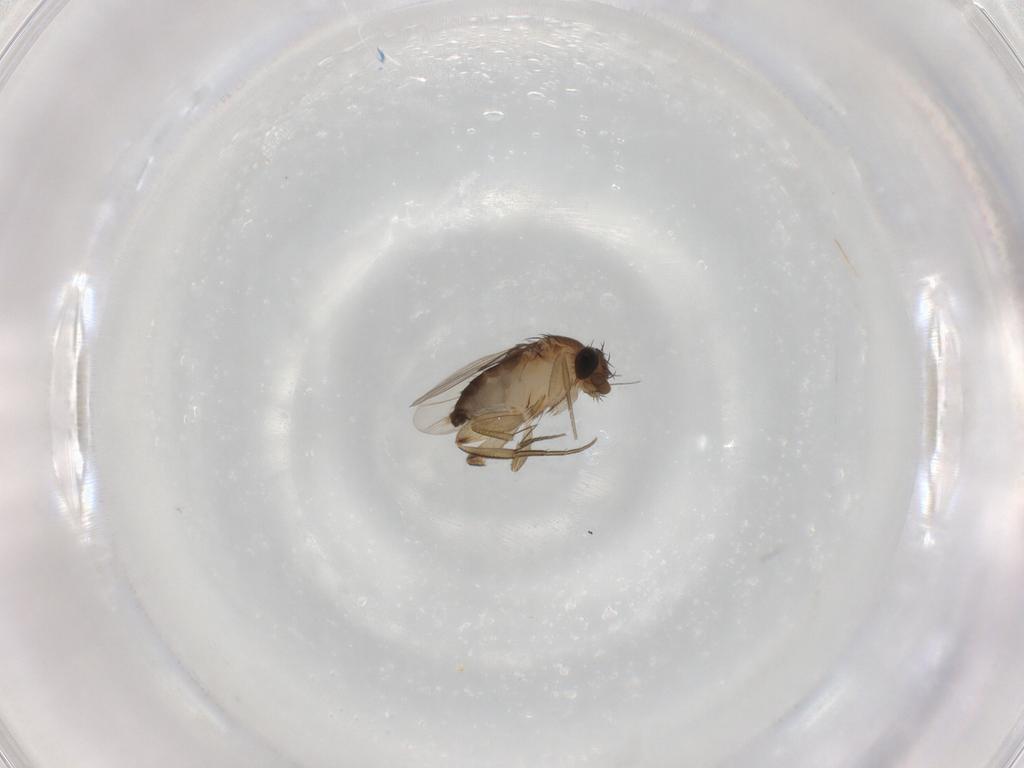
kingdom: Animalia
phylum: Arthropoda
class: Insecta
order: Diptera
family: Phoridae
